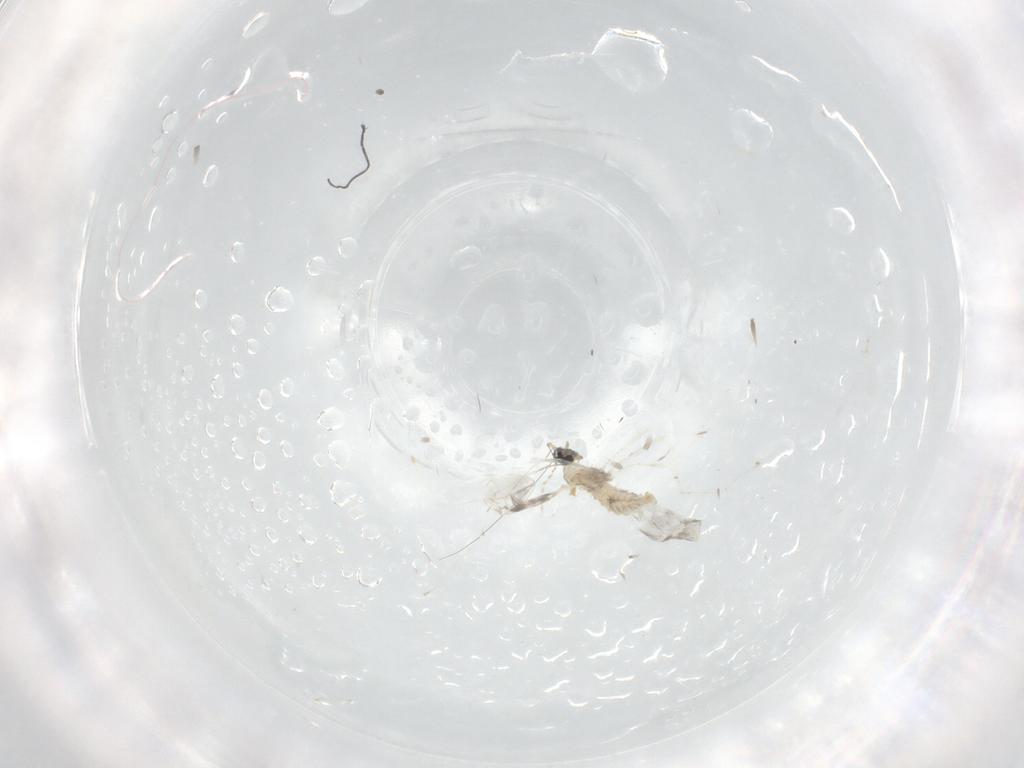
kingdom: Animalia
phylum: Arthropoda
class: Insecta
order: Diptera
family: Cecidomyiidae
